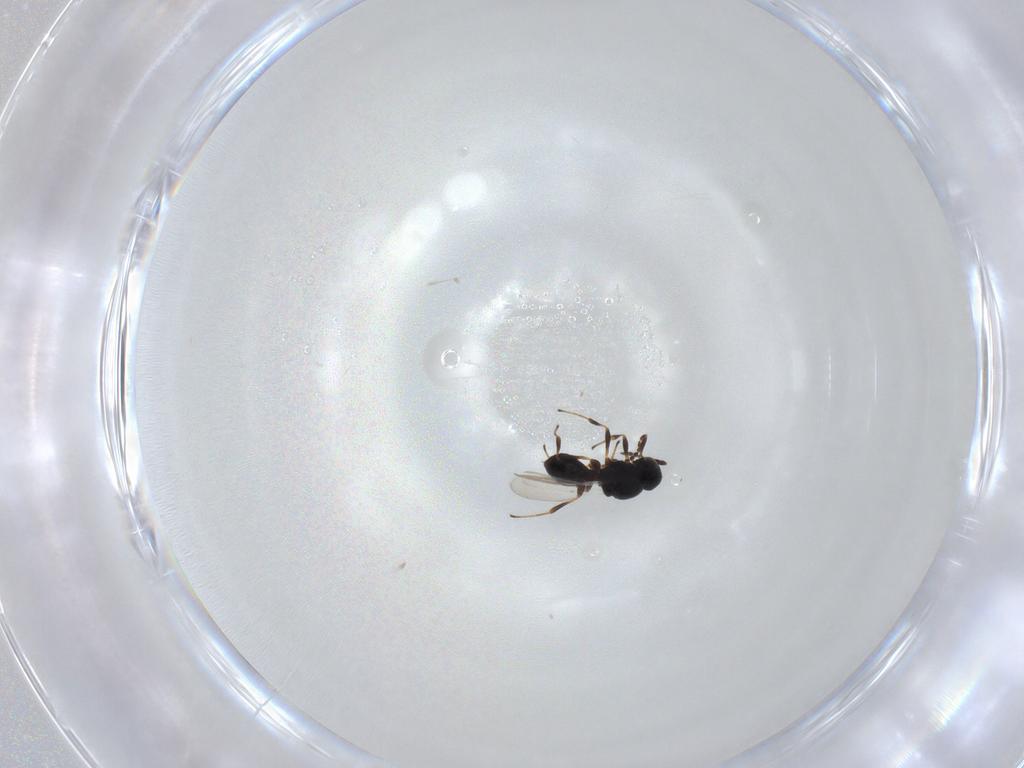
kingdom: Animalia
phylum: Arthropoda
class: Insecta
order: Hymenoptera
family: Platygastridae
